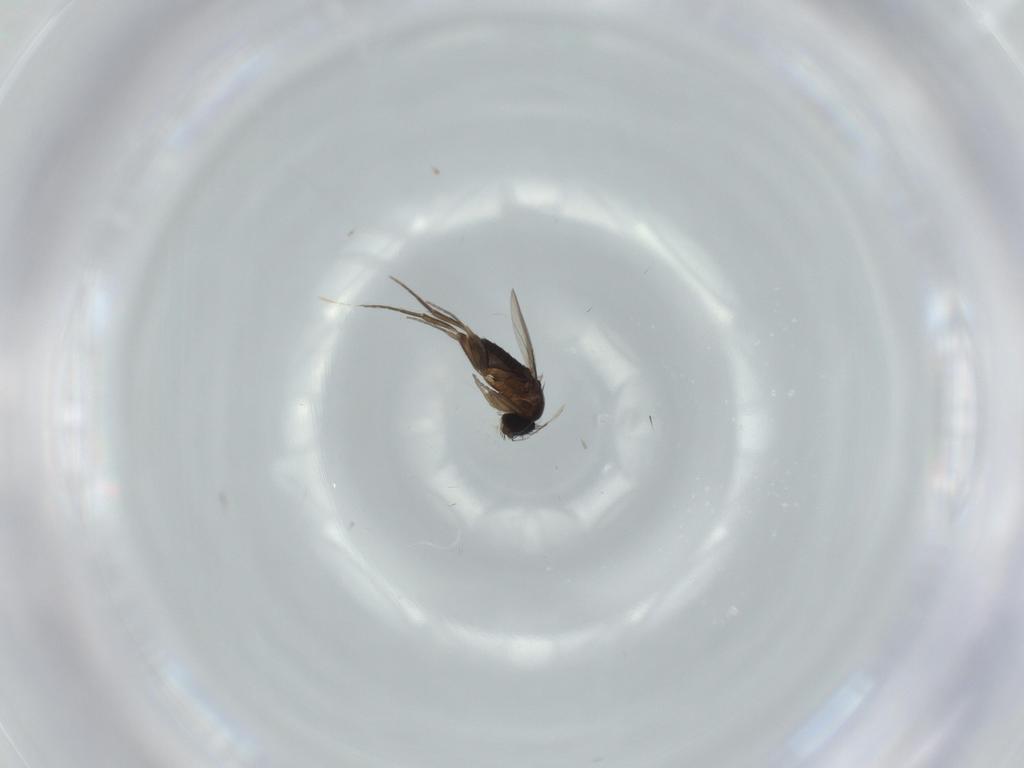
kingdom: Animalia
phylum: Arthropoda
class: Insecta
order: Diptera
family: Phoridae
